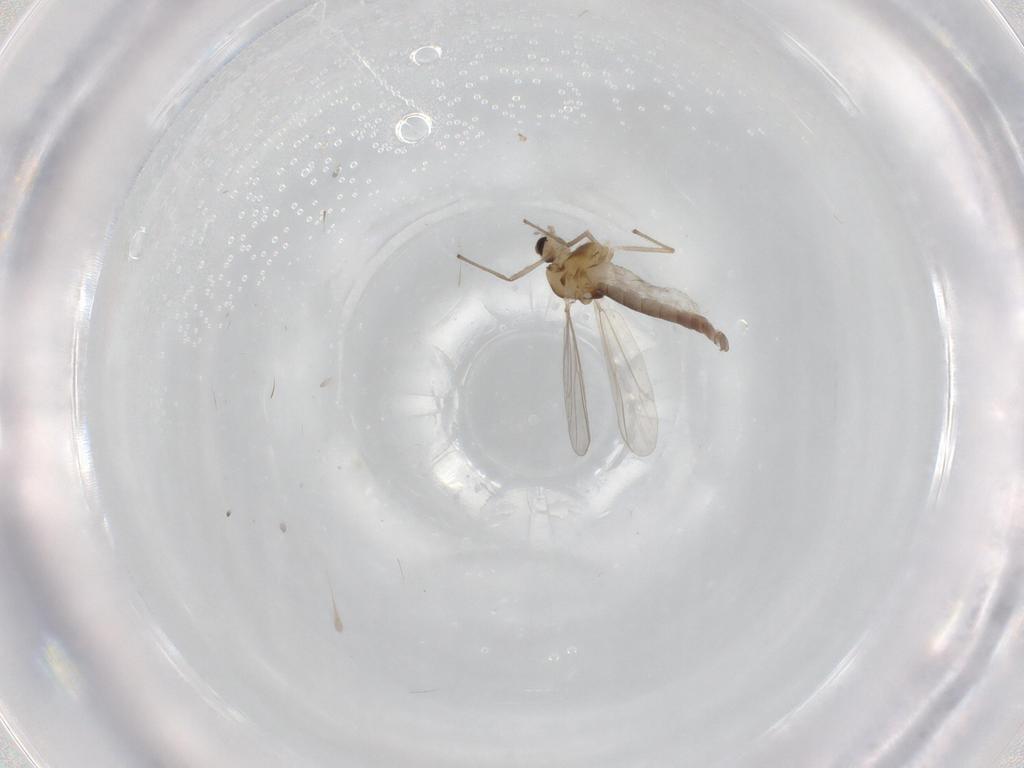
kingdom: Animalia
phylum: Arthropoda
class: Insecta
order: Diptera
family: Chironomidae
